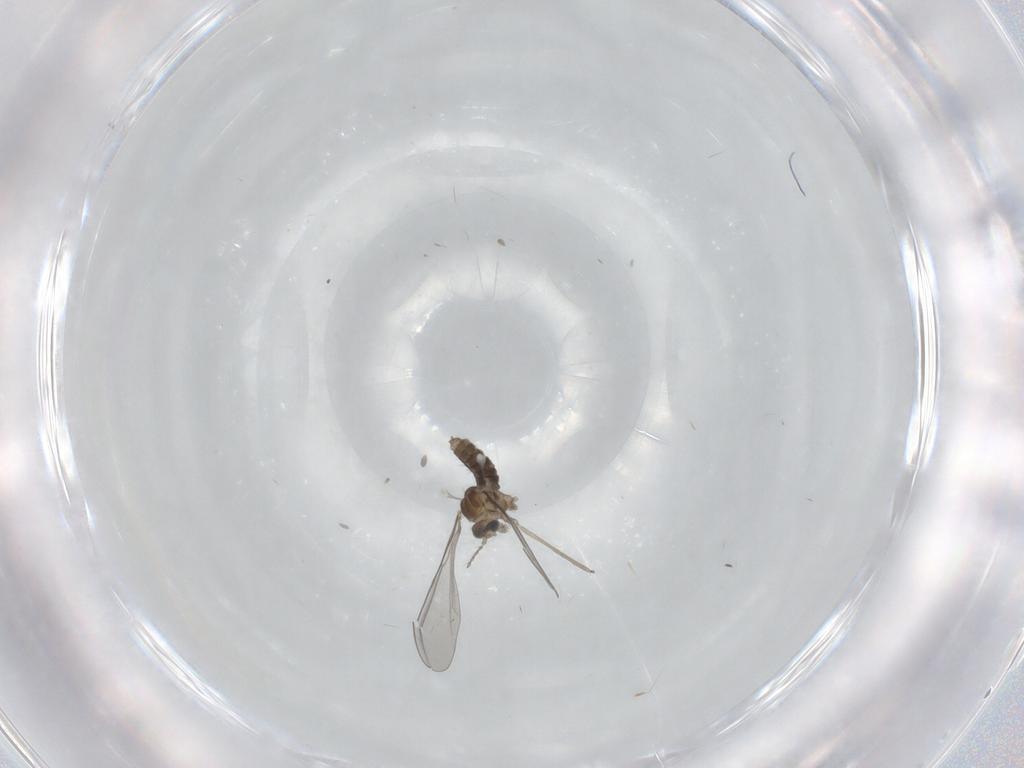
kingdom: Animalia
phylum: Arthropoda
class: Insecta
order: Diptera
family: Cecidomyiidae
